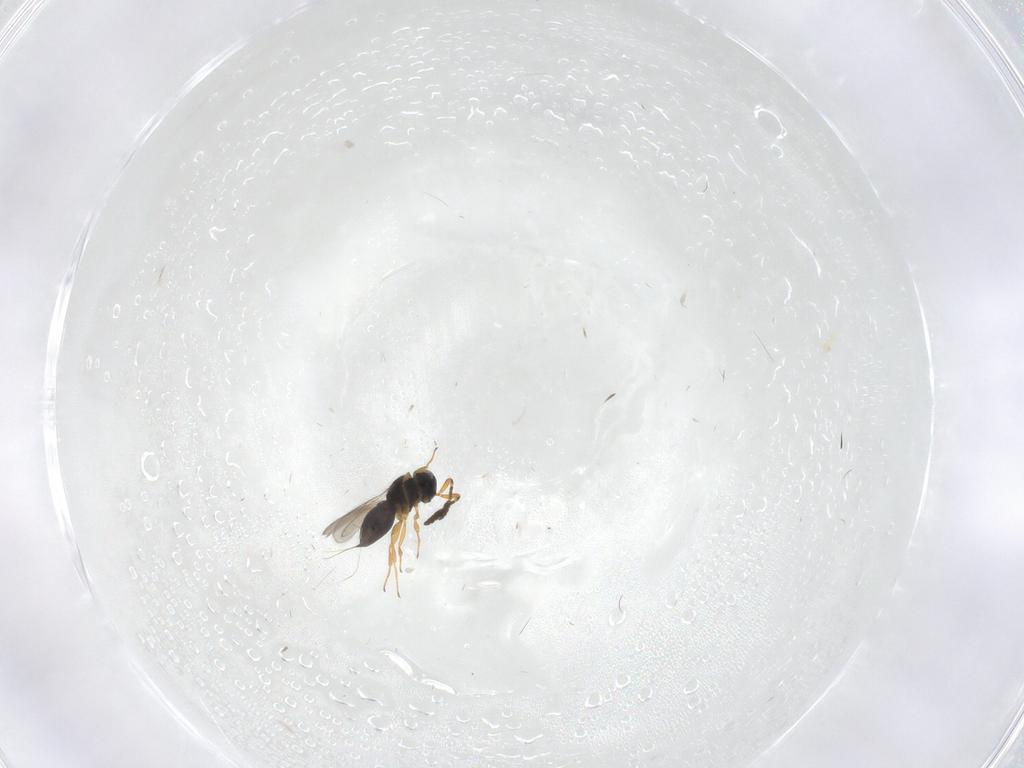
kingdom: Animalia
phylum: Arthropoda
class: Insecta
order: Hymenoptera
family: Scelionidae
